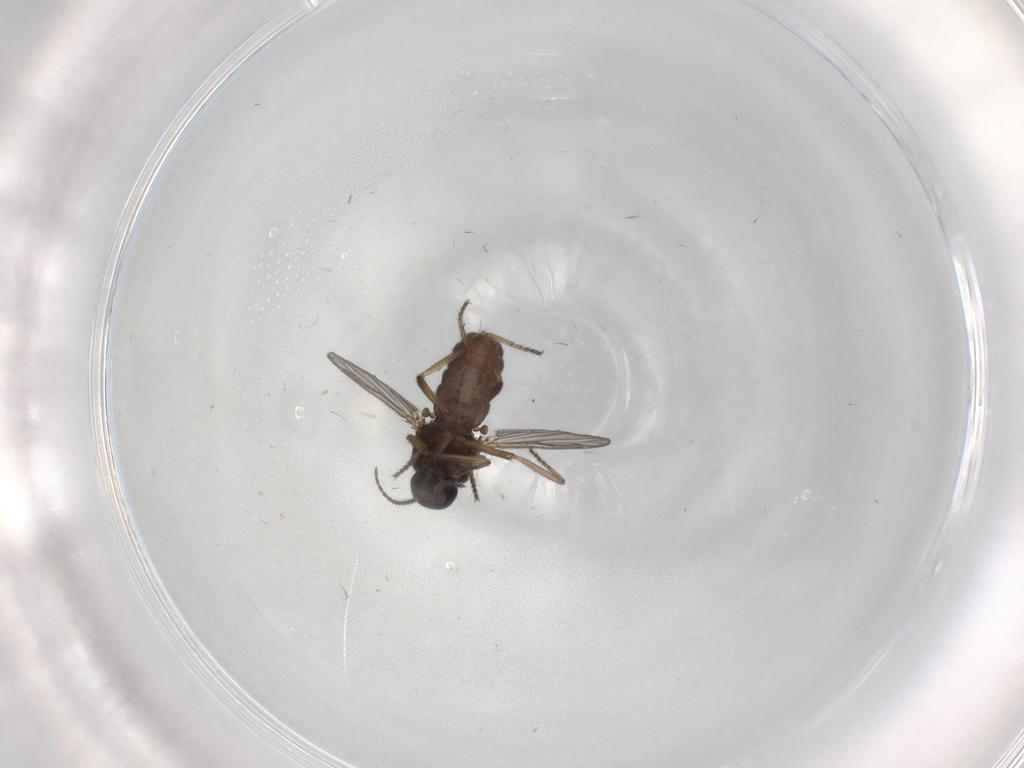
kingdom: Animalia
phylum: Arthropoda
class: Insecta
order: Diptera
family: Ceratopogonidae
